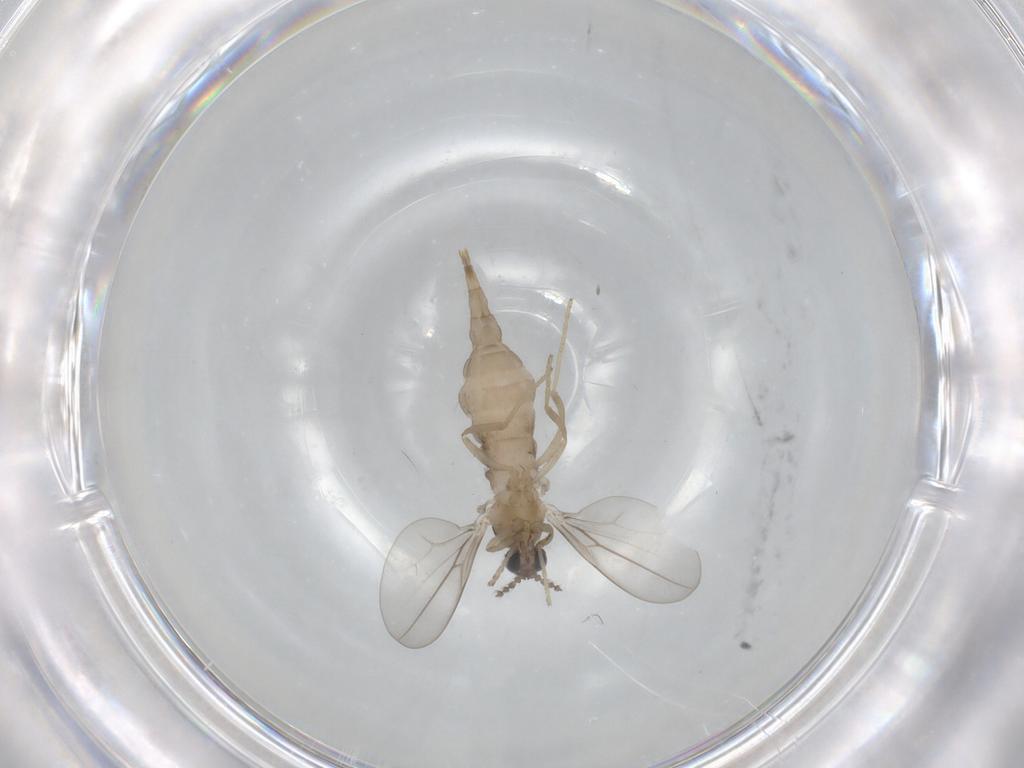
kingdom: Animalia
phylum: Arthropoda
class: Insecta
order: Diptera
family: Cecidomyiidae
